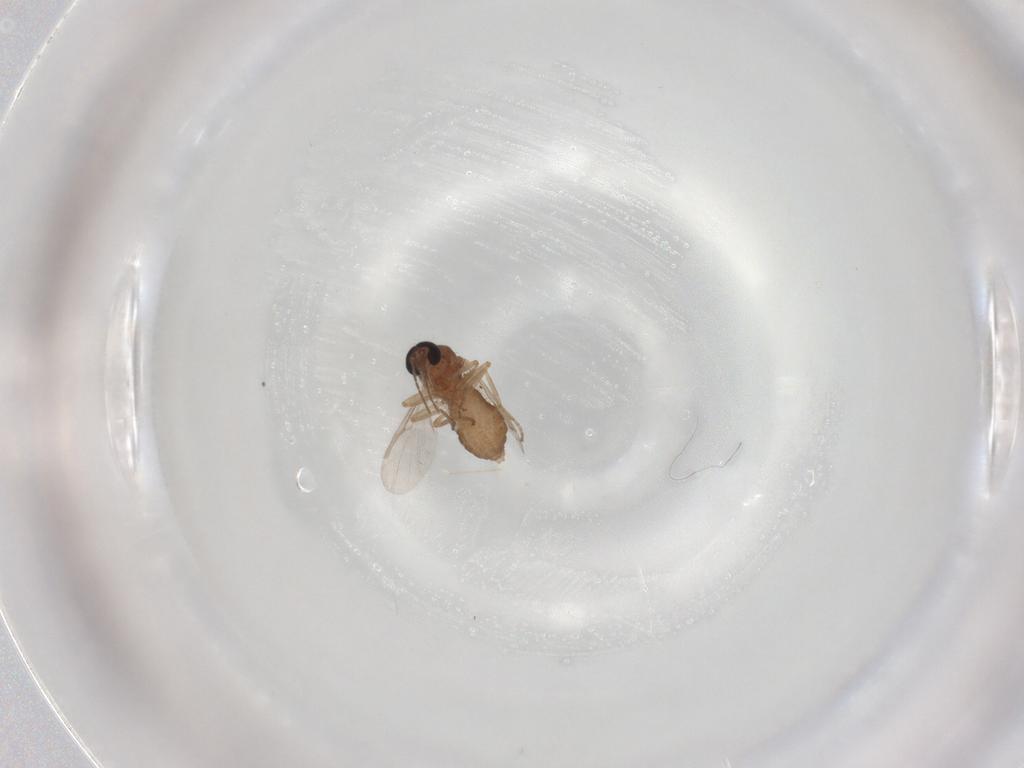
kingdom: Animalia
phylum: Arthropoda
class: Insecta
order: Diptera
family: Ceratopogonidae
